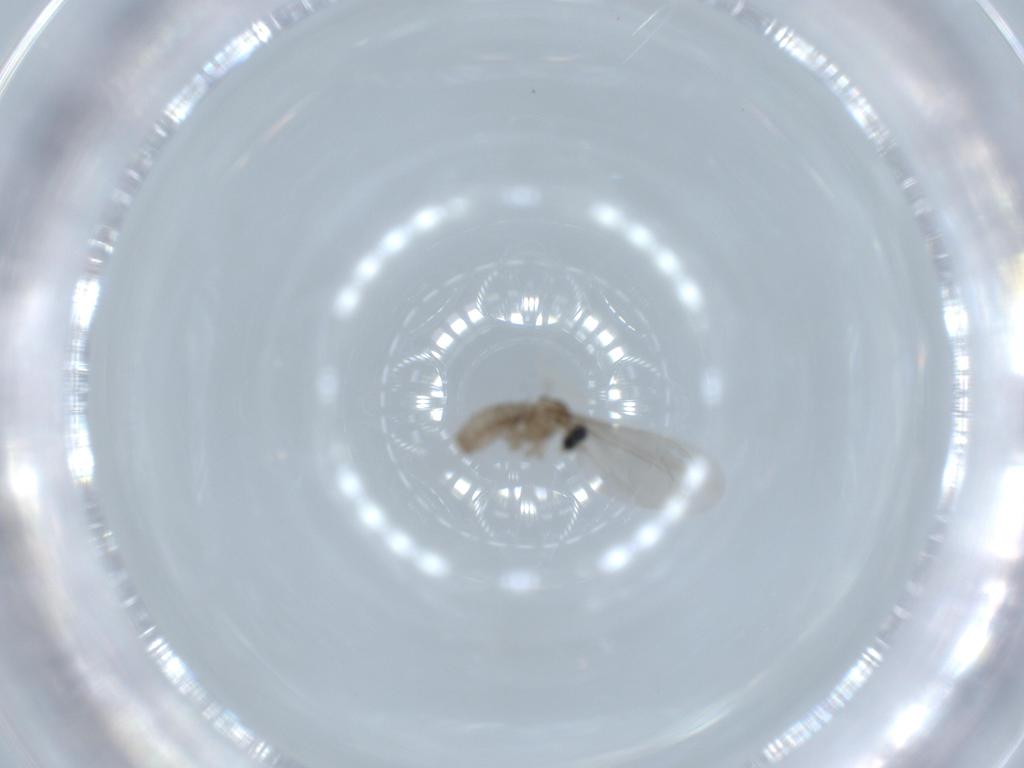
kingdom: Animalia
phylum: Arthropoda
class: Insecta
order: Diptera
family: Cecidomyiidae
